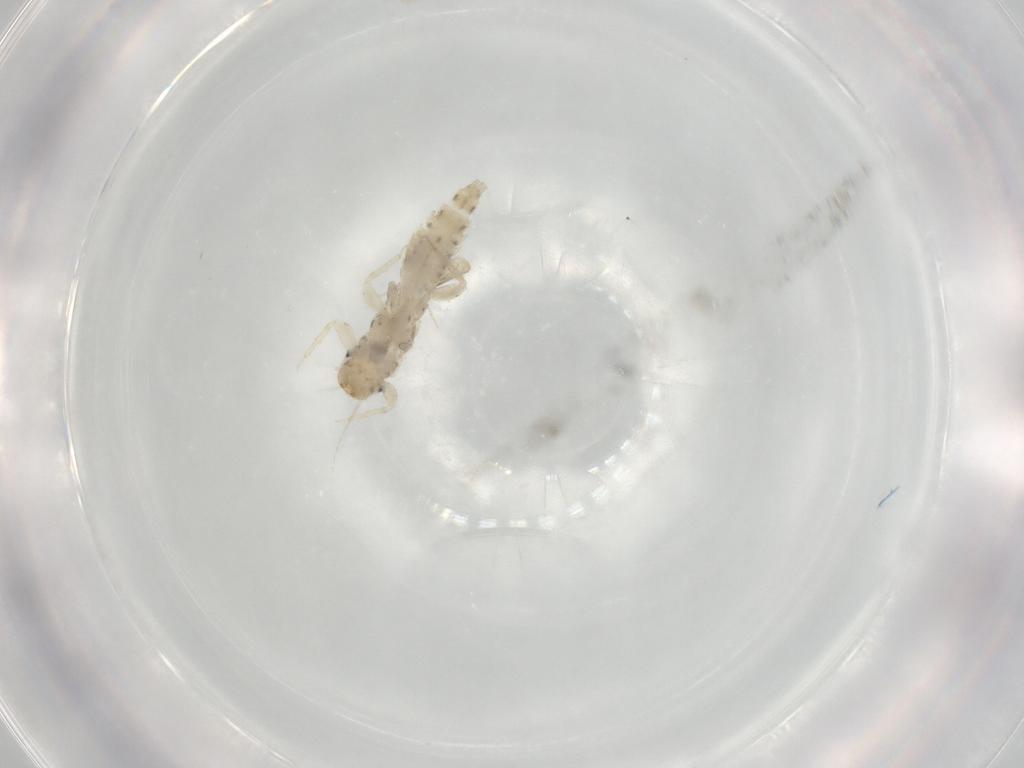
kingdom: Animalia
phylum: Arthropoda
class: Insecta
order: Ephemeroptera
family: Caenidae
